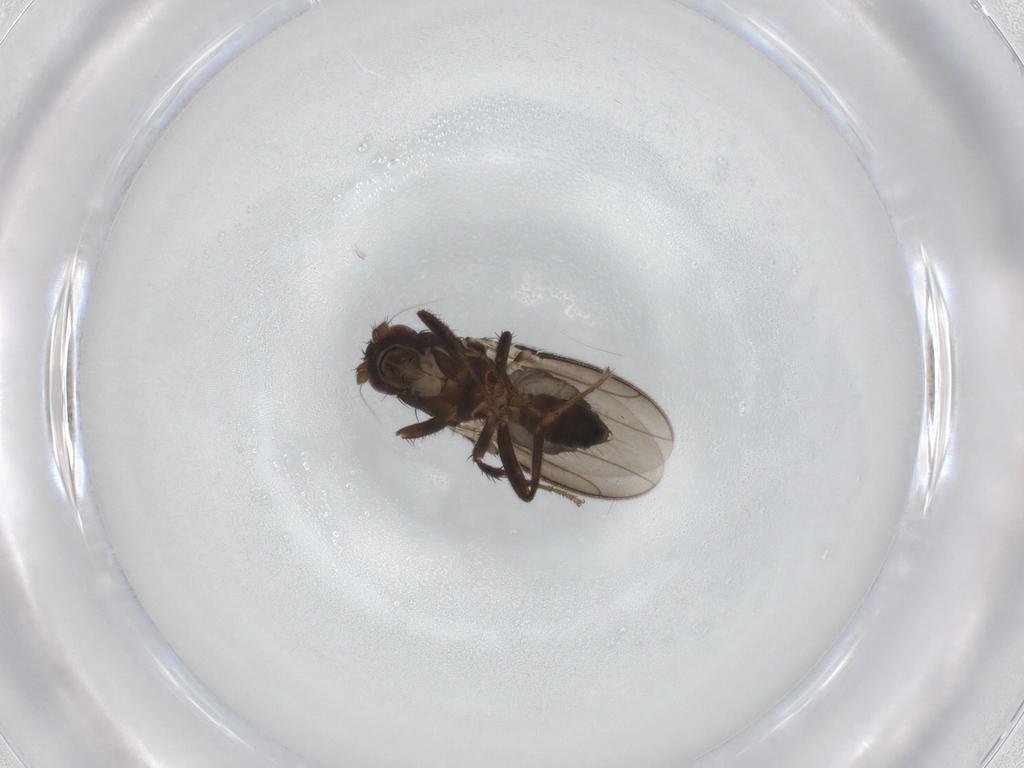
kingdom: Animalia
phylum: Arthropoda
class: Insecta
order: Diptera
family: Sphaeroceridae
